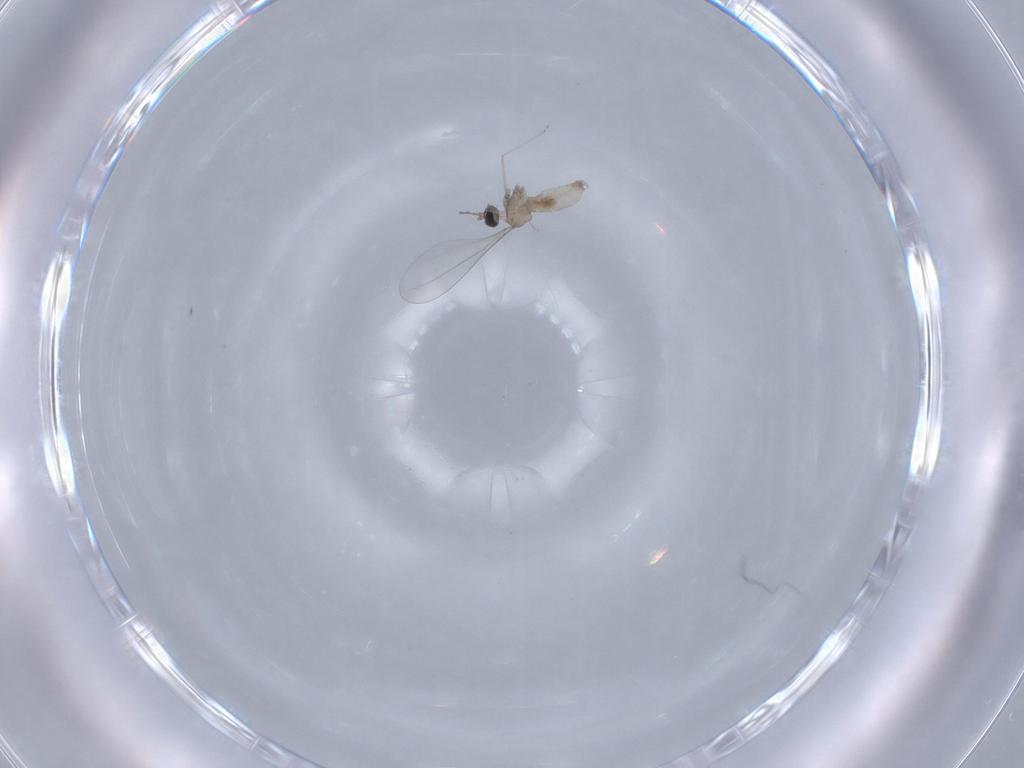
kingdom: Animalia
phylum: Arthropoda
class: Insecta
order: Diptera
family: Cecidomyiidae
